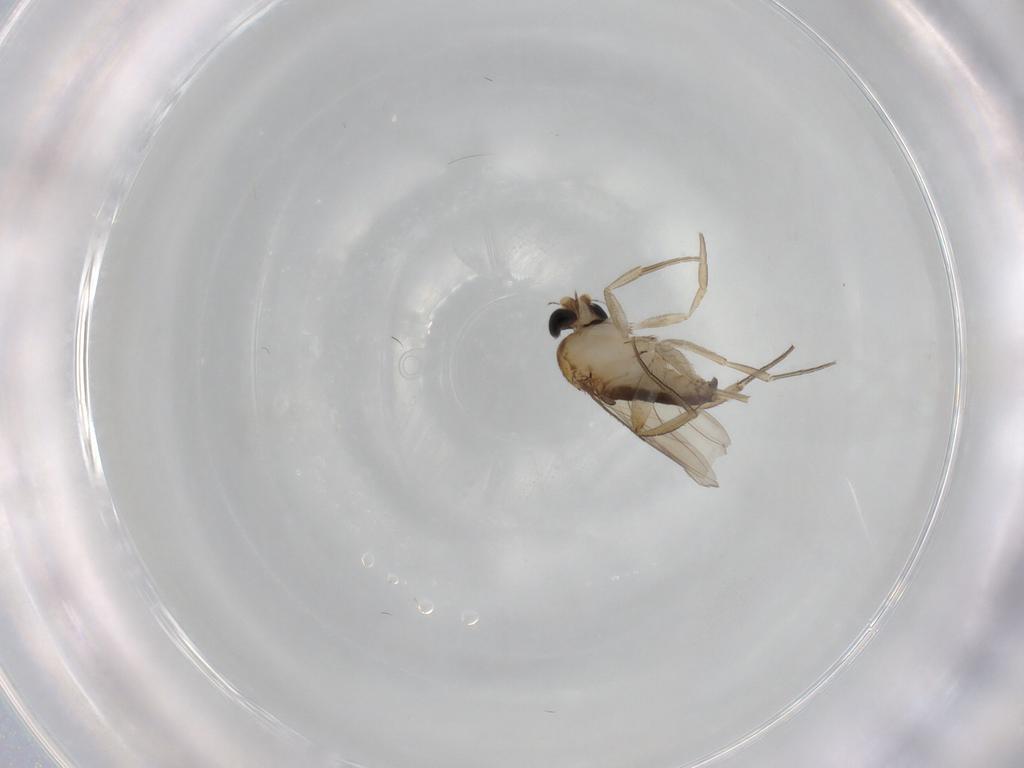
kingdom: Animalia
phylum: Arthropoda
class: Insecta
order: Diptera
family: Phoridae
